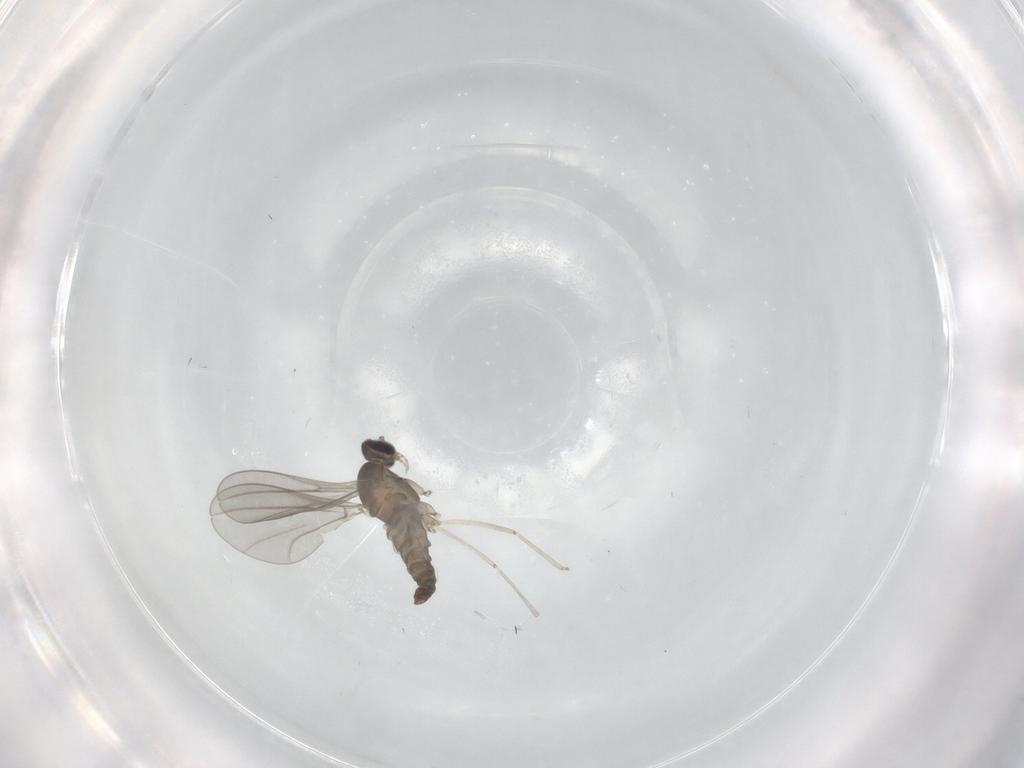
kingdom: Animalia
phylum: Arthropoda
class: Insecta
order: Diptera
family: Cecidomyiidae
